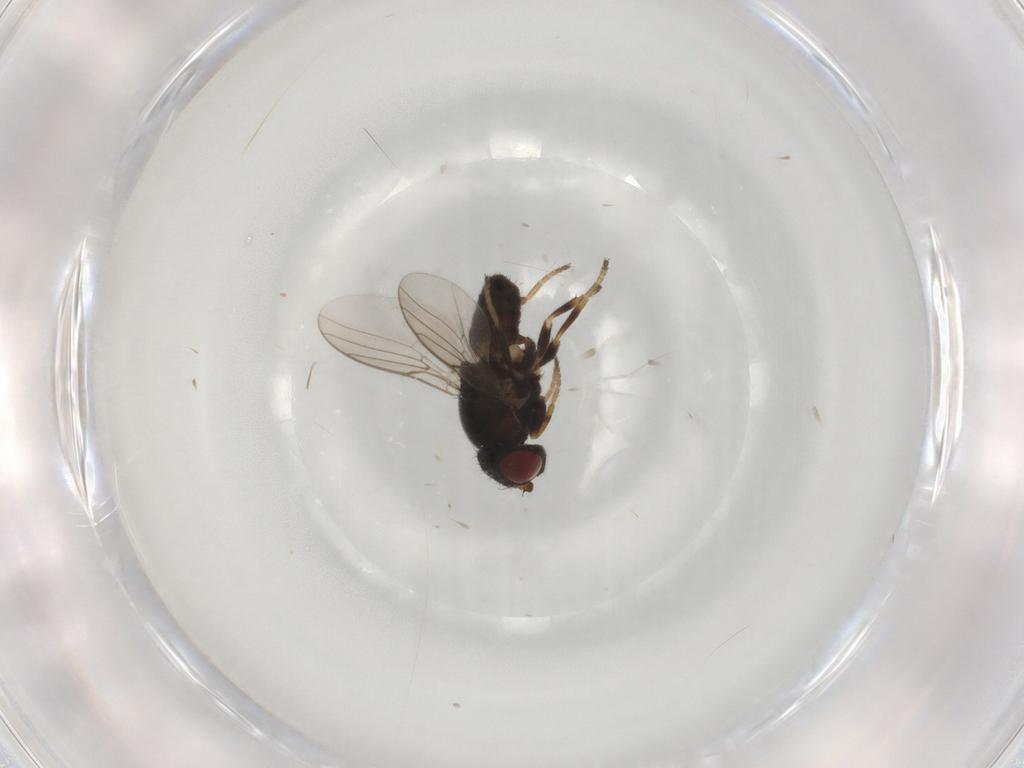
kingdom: Animalia
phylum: Arthropoda
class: Insecta
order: Diptera
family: Chloropidae
